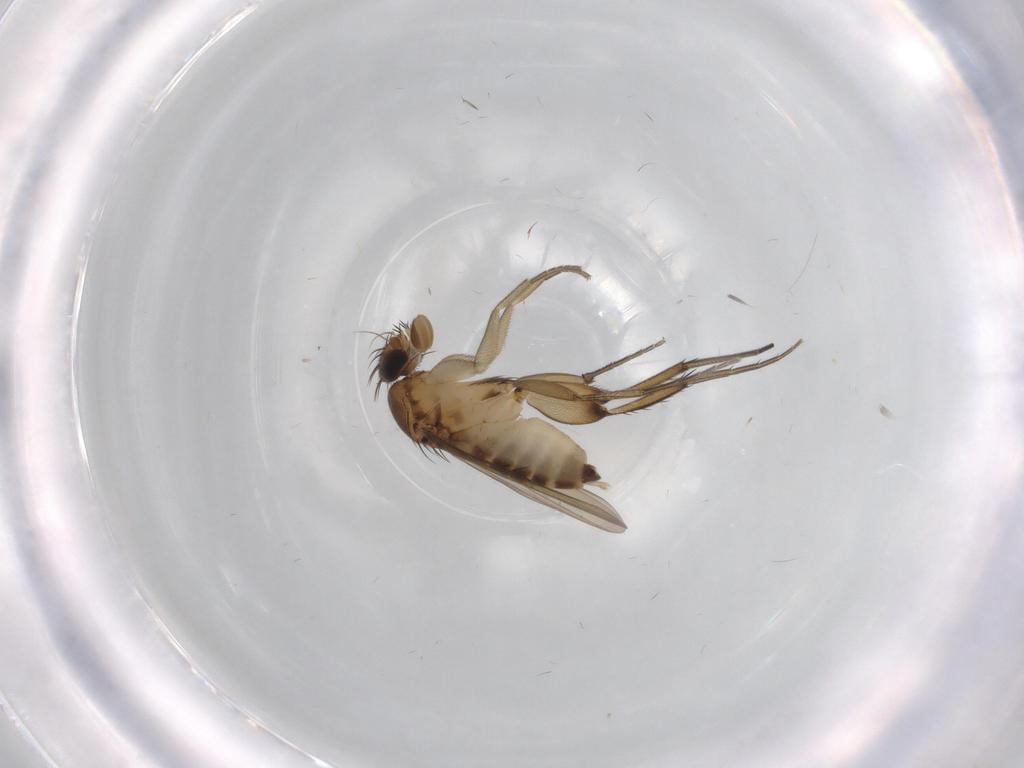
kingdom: Animalia
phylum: Arthropoda
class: Insecta
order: Diptera
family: Phoridae
